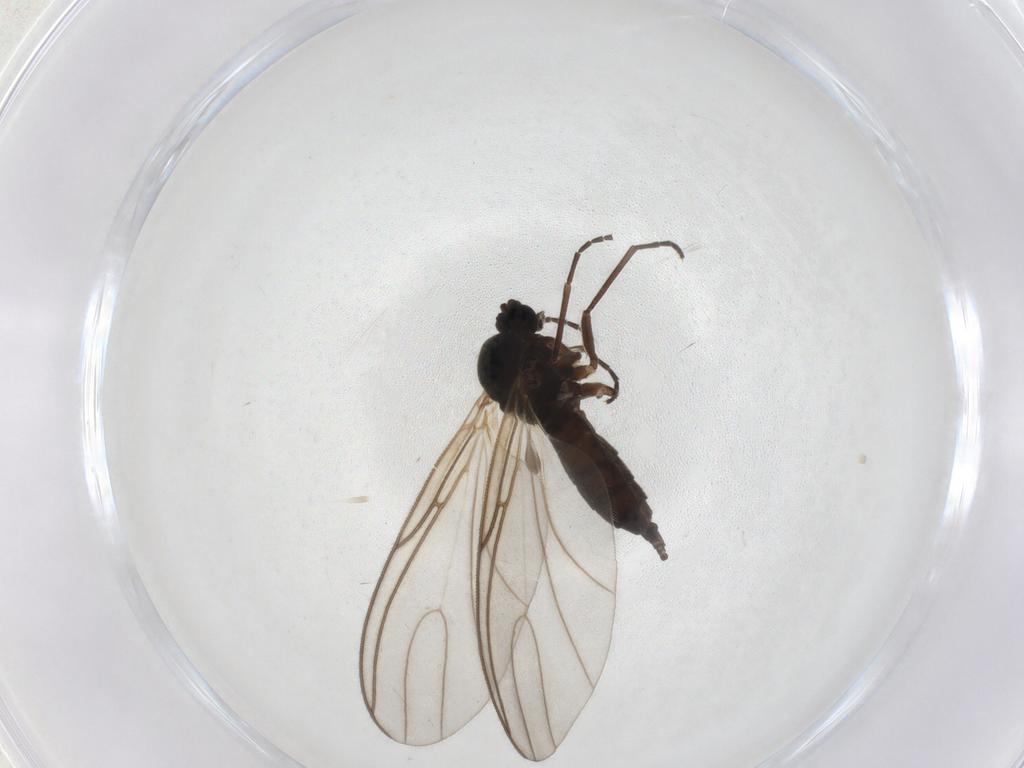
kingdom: Animalia
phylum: Arthropoda
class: Insecta
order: Diptera
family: Sciaridae
